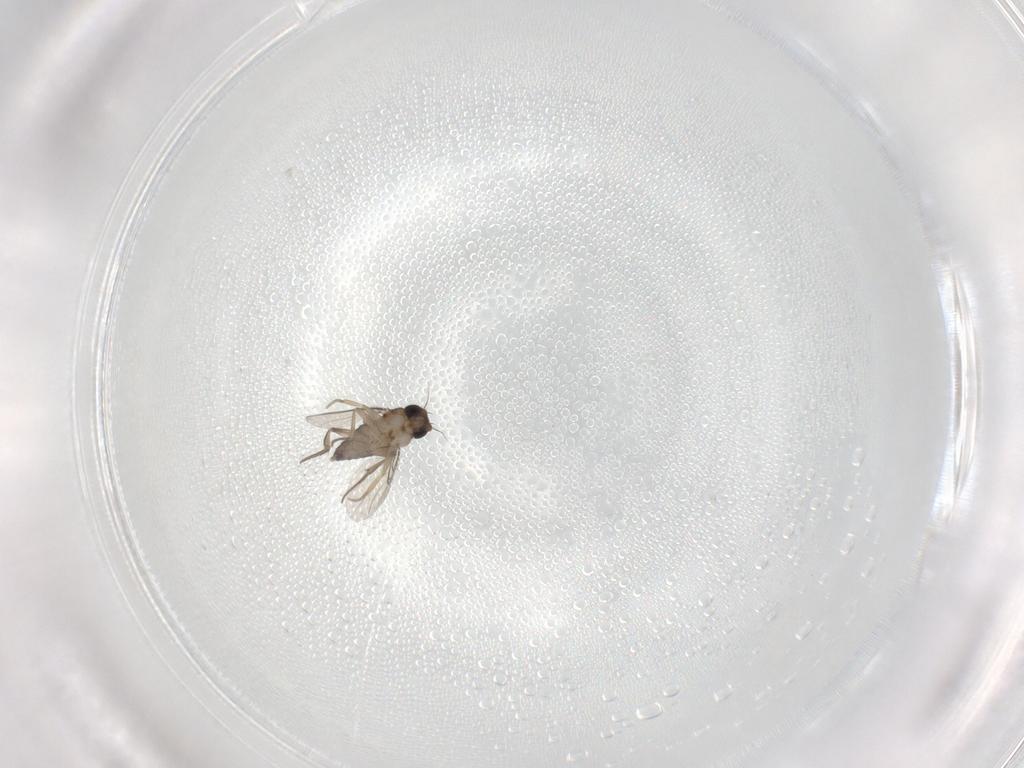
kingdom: Animalia
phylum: Arthropoda
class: Insecta
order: Diptera
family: Phoridae
